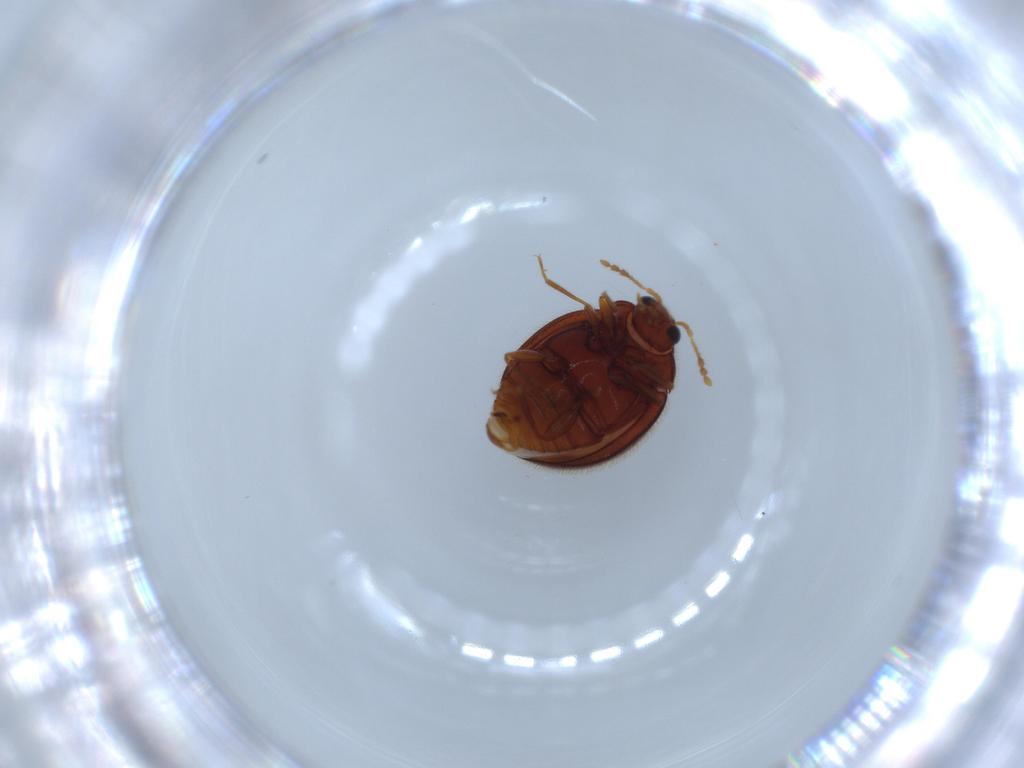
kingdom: Animalia
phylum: Arthropoda
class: Insecta
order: Coleoptera
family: Anamorphidae
